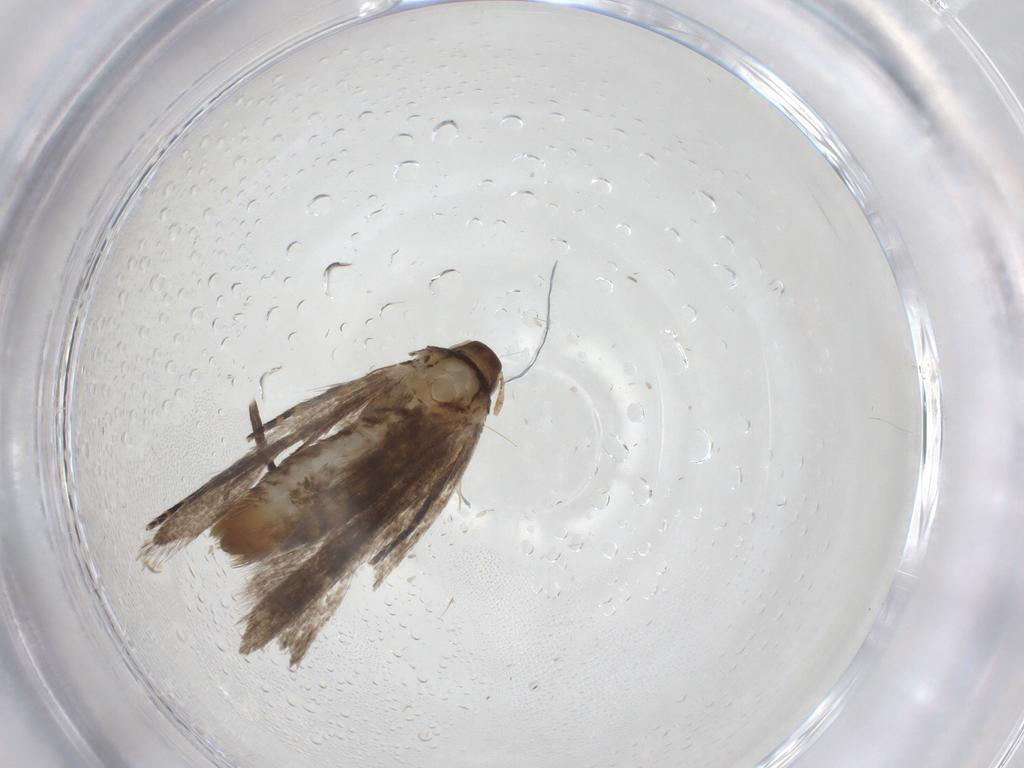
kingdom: Animalia
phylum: Arthropoda
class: Insecta
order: Lepidoptera
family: Gelechiidae
